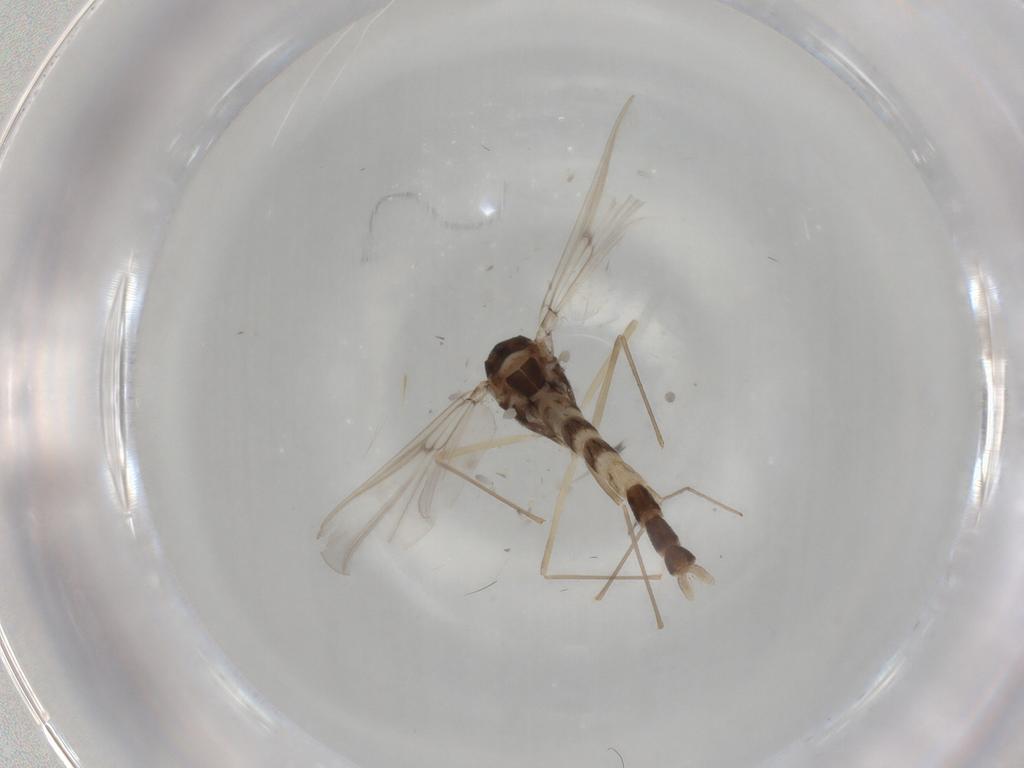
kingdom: Animalia
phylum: Arthropoda
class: Insecta
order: Diptera
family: Chironomidae
